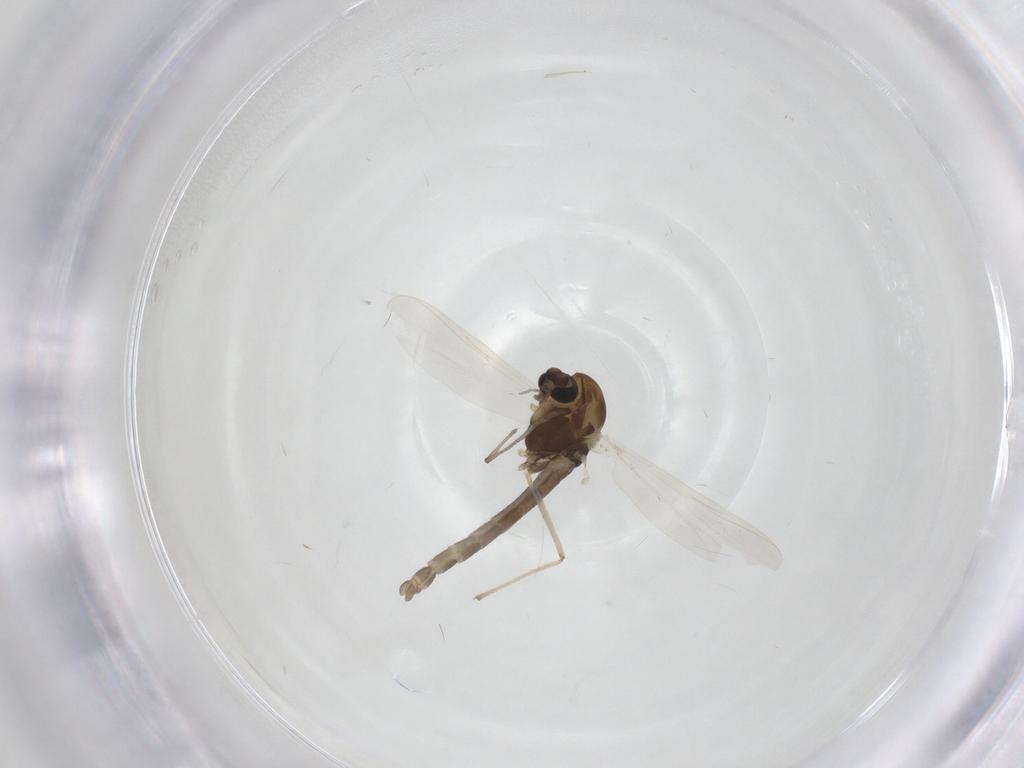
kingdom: Animalia
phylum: Arthropoda
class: Insecta
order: Diptera
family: Chironomidae
